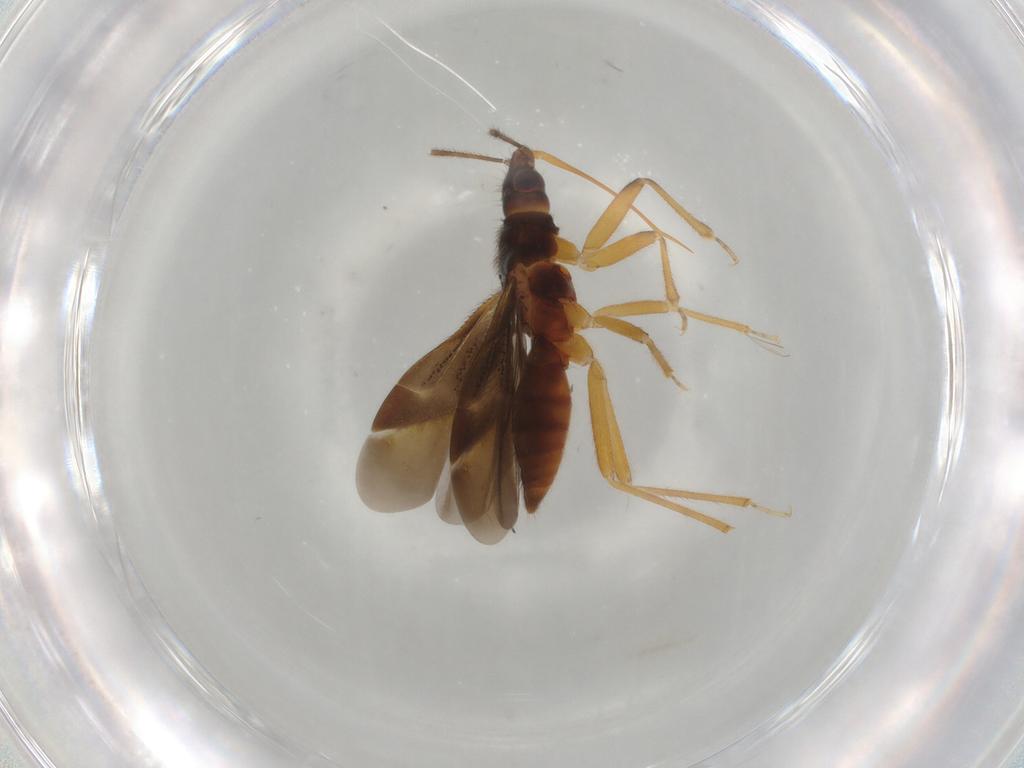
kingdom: Animalia
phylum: Arthropoda
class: Insecta
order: Hemiptera
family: Anthocoridae
